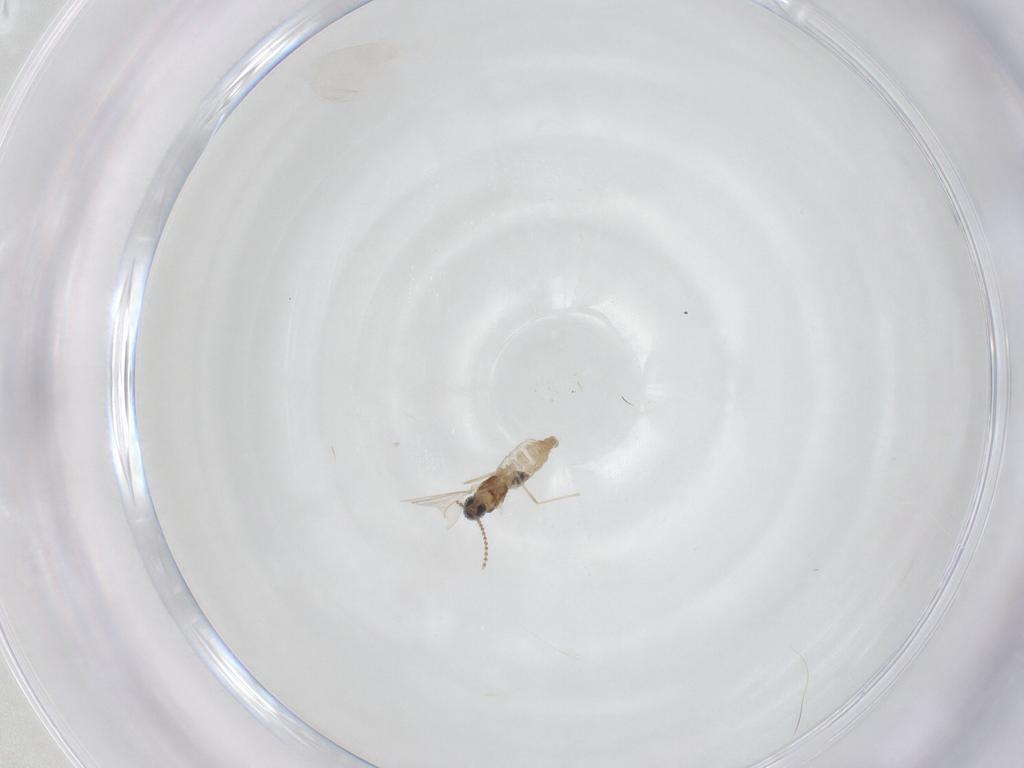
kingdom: Animalia
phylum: Arthropoda
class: Insecta
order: Diptera
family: Cecidomyiidae
